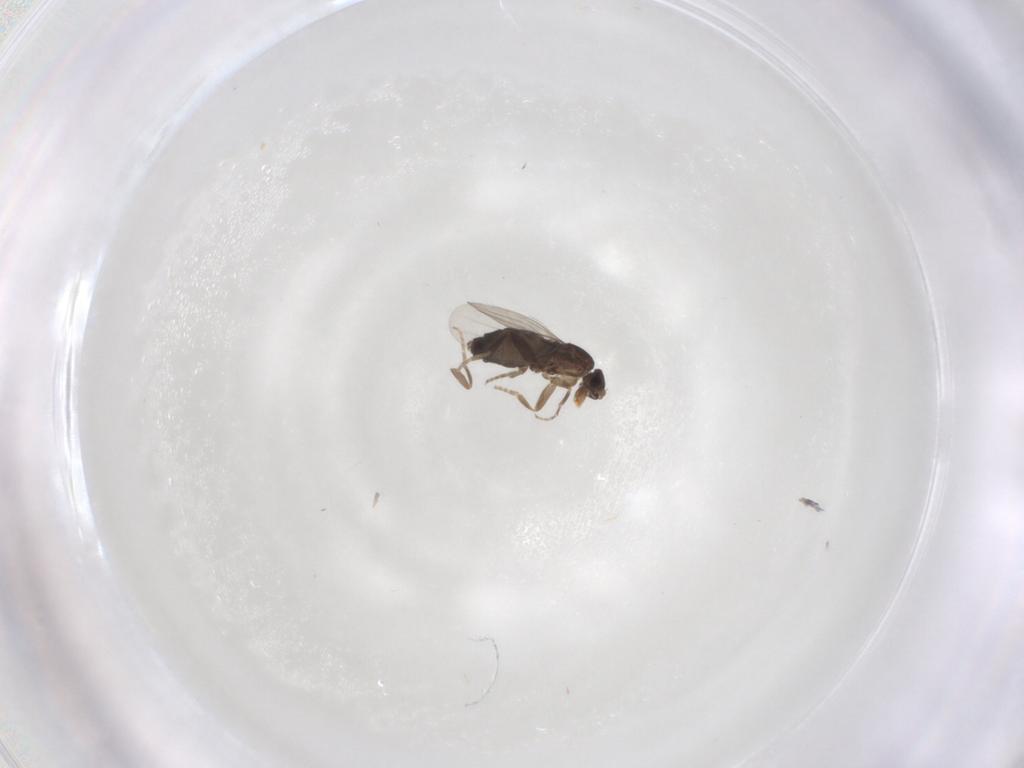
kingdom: Animalia
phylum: Arthropoda
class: Insecta
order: Diptera
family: Phoridae
